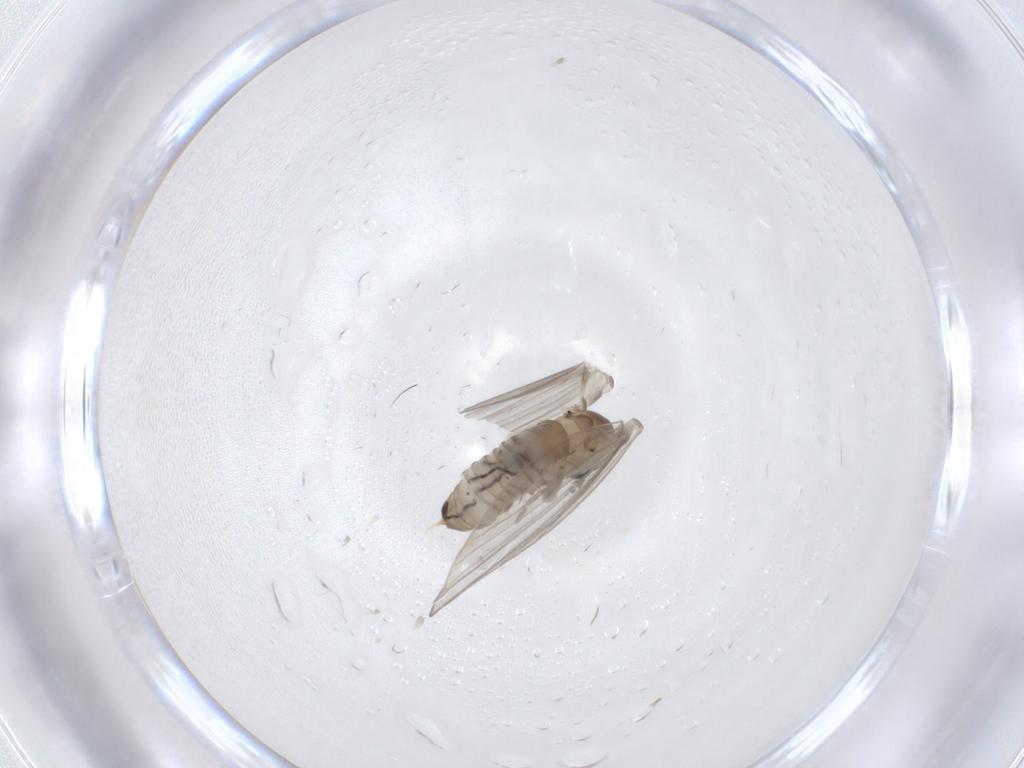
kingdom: Animalia
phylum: Arthropoda
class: Insecta
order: Diptera
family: Psychodidae
